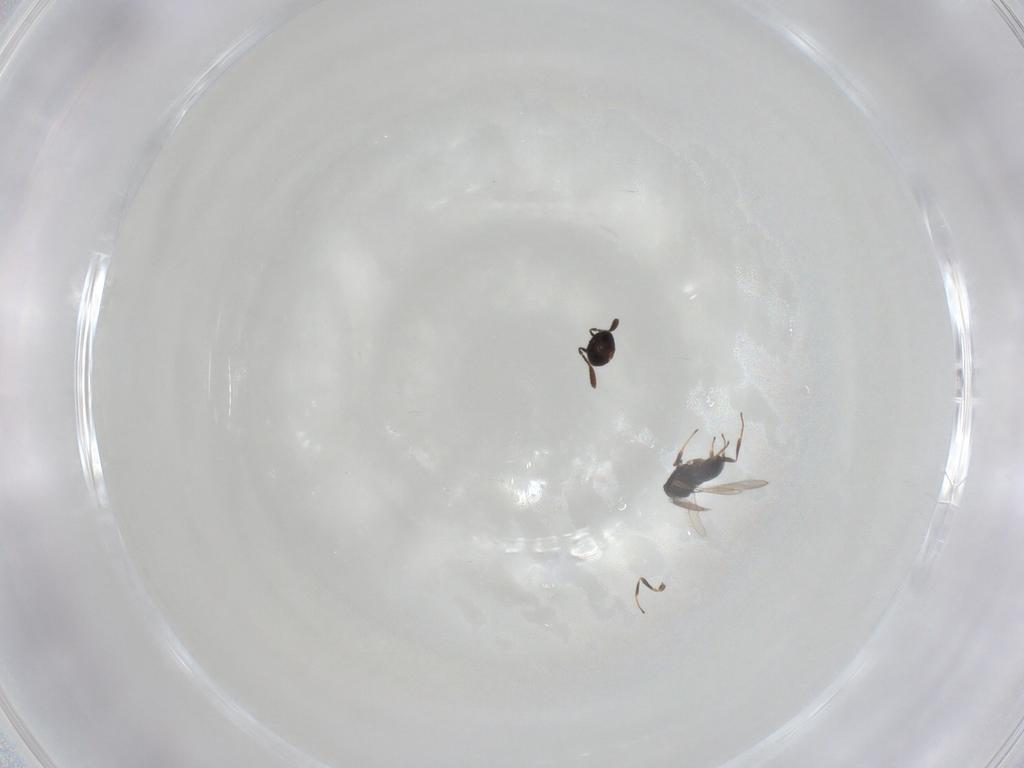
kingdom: Animalia
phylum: Arthropoda
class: Insecta
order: Hymenoptera
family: Scelionidae
